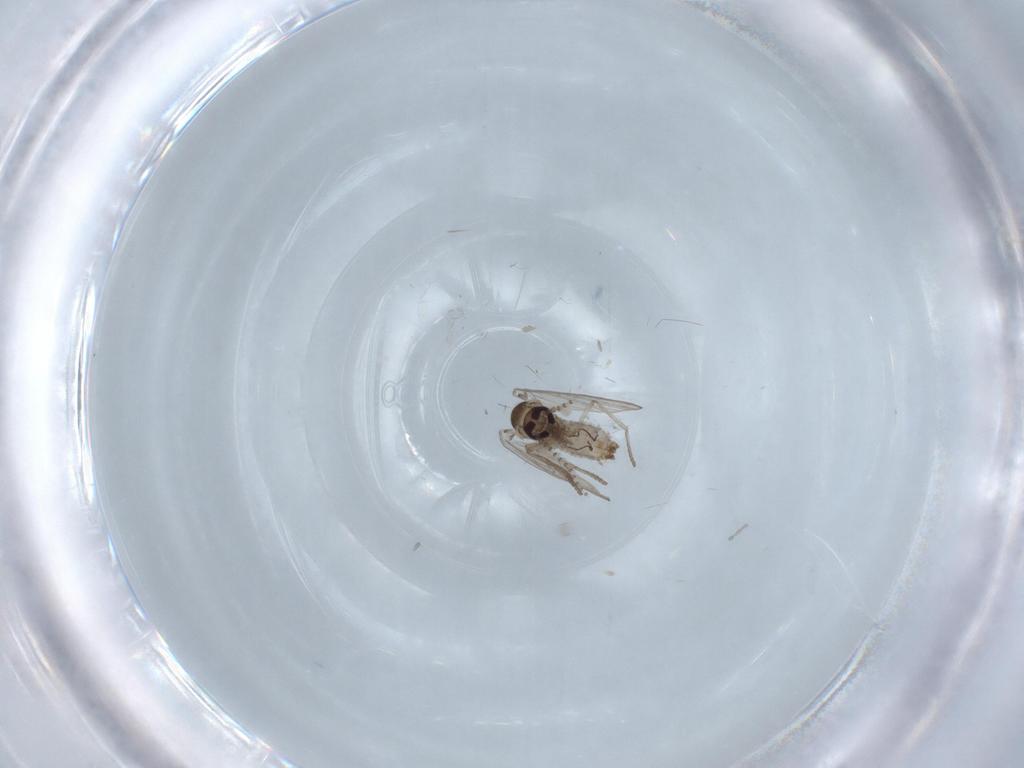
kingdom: Animalia
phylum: Arthropoda
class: Insecta
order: Diptera
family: Psychodidae
